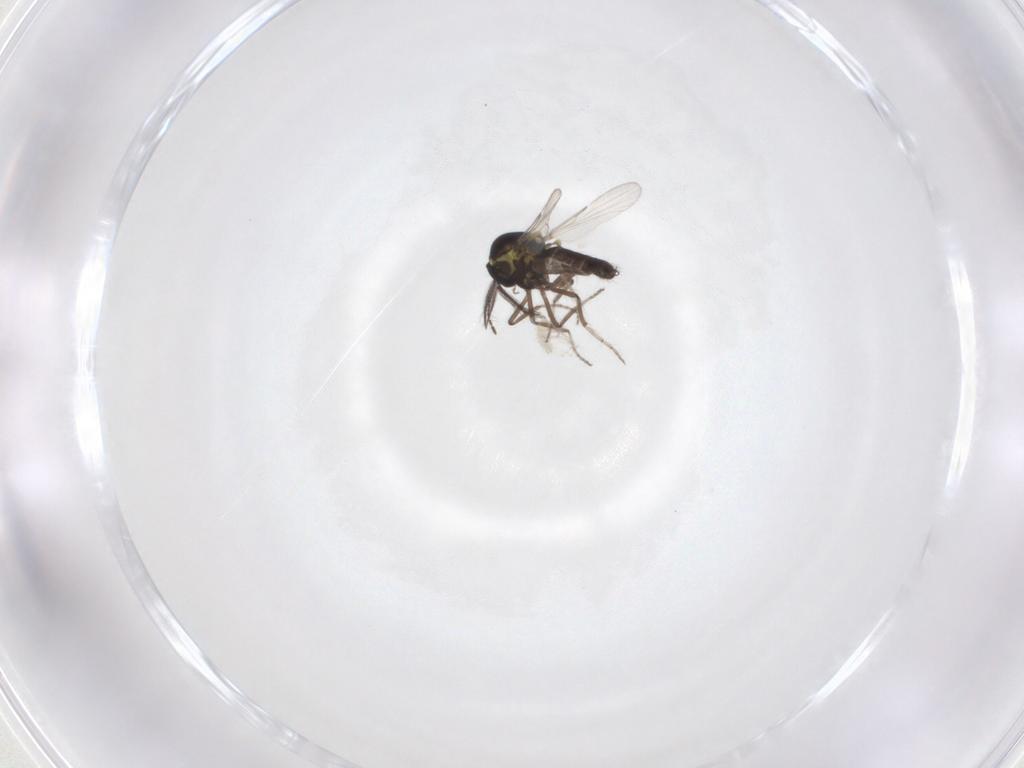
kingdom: Animalia
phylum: Arthropoda
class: Insecta
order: Diptera
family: Ceratopogonidae
